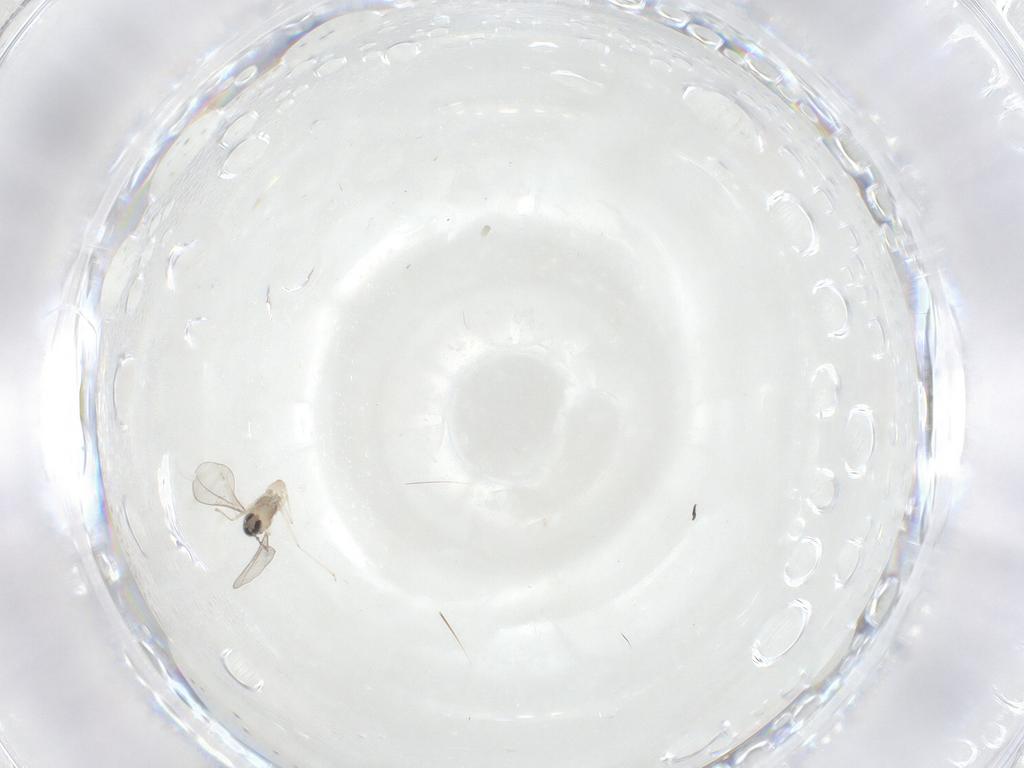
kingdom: Animalia
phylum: Arthropoda
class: Insecta
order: Diptera
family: Cecidomyiidae
